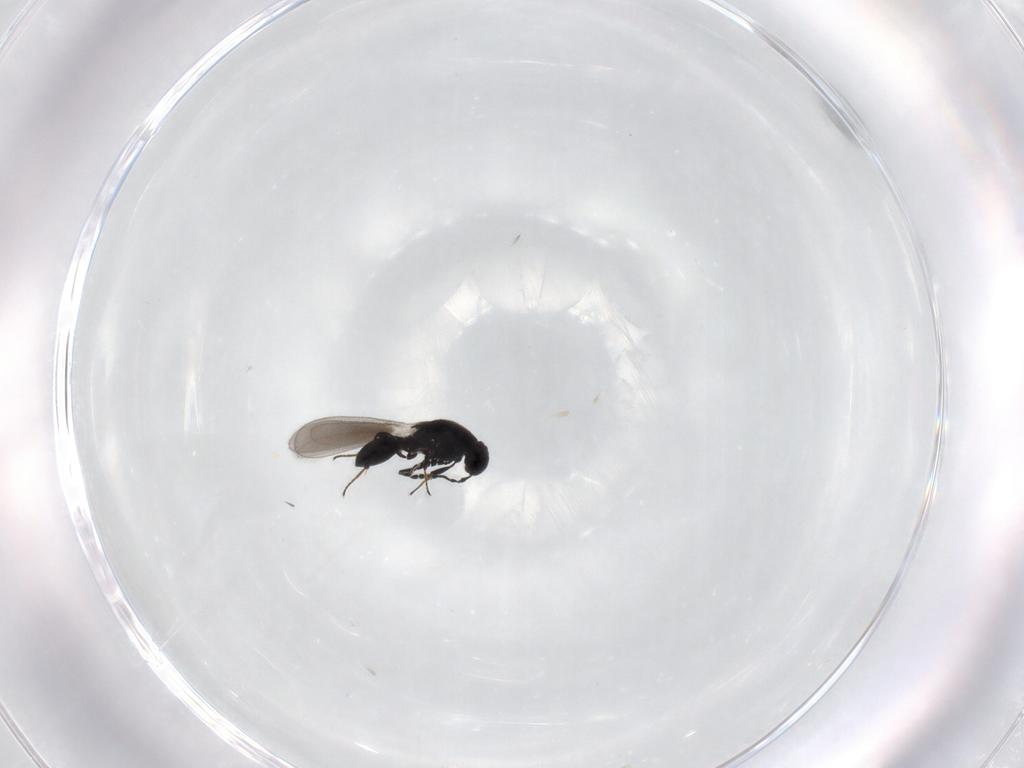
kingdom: Animalia
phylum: Arthropoda
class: Insecta
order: Hymenoptera
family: Platygastridae
